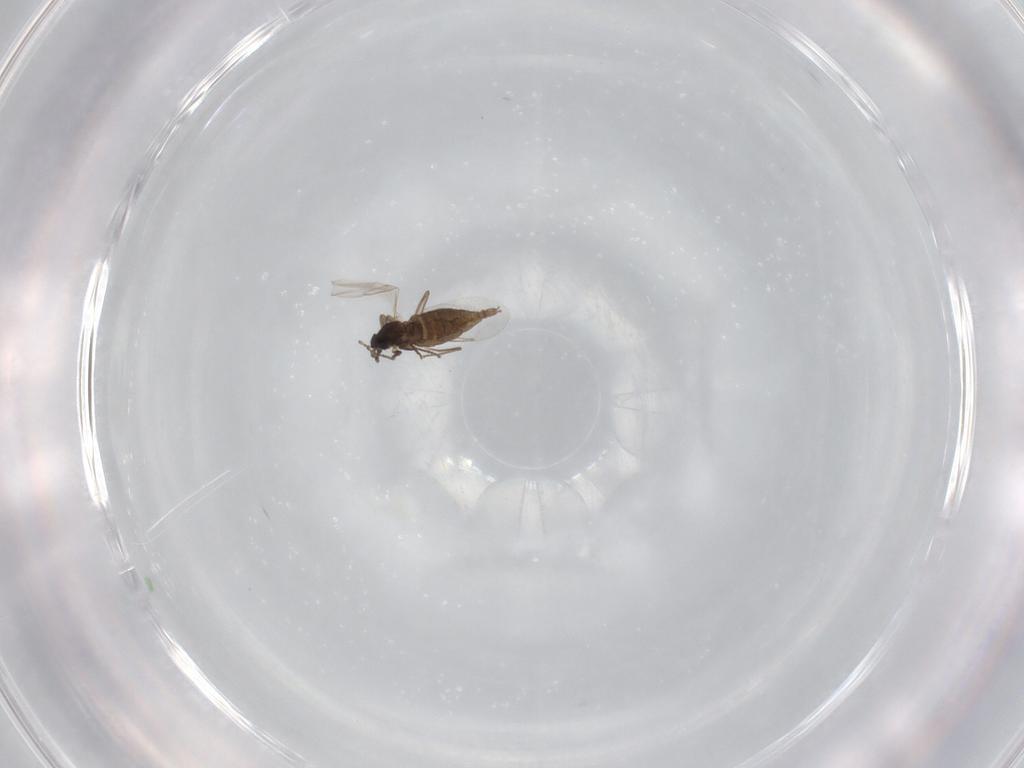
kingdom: Animalia
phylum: Arthropoda
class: Insecta
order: Diptera
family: Cecidomyiidae
